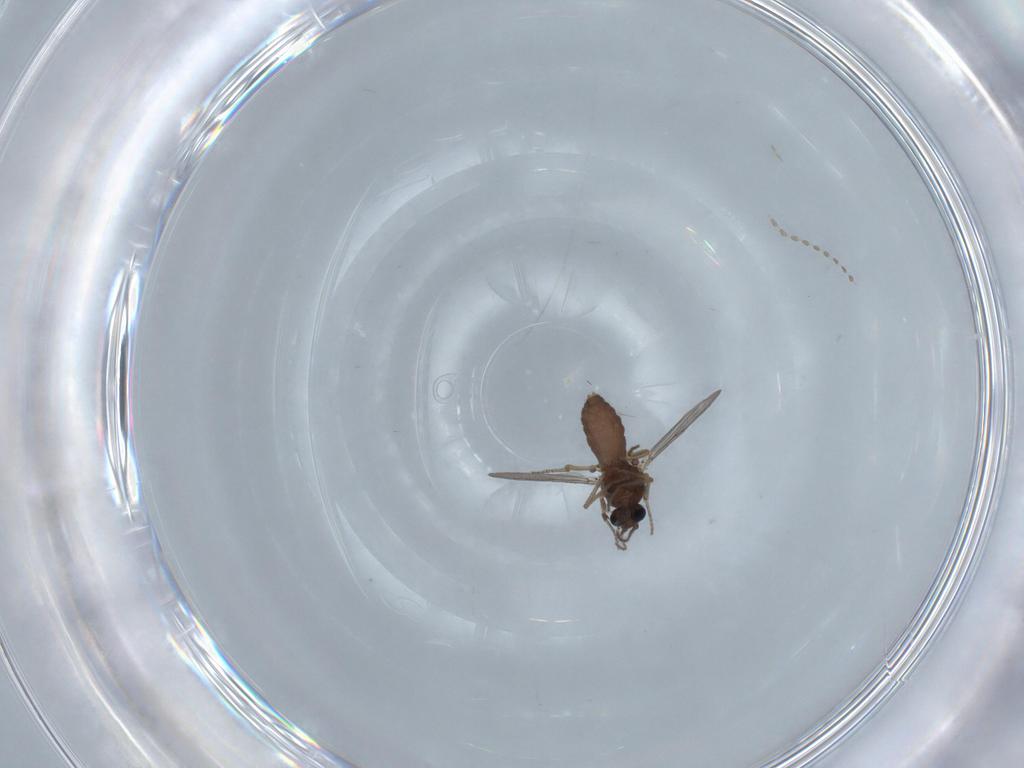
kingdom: Animalia
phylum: Arthropoda
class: Insecta
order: Diptera
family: Ceratopogonidae
